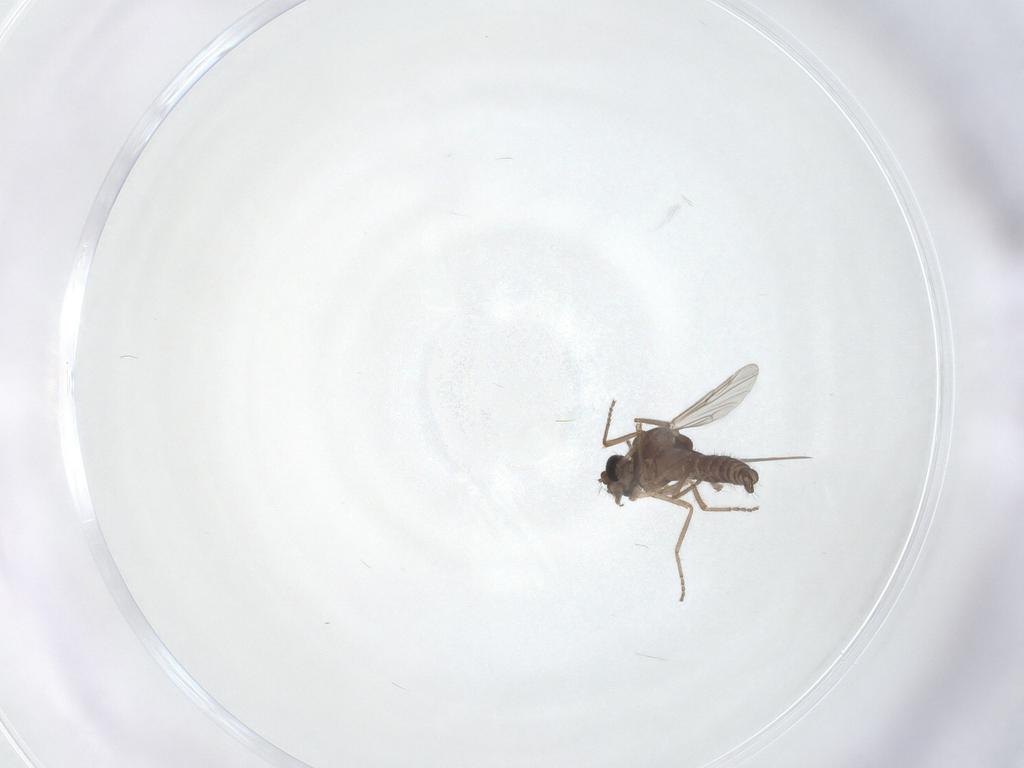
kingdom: Animalia
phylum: Arthropoda
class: Insecta
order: Diptera
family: Ceratopogonidae
